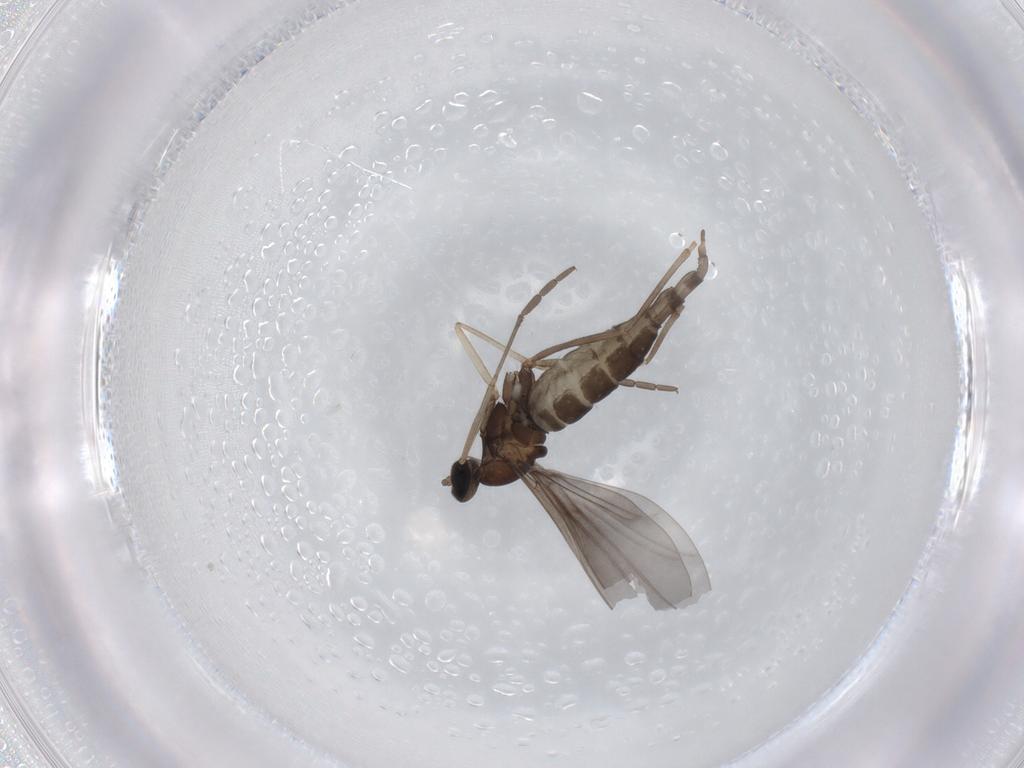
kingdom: Animalia
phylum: Arthropoda
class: Insecta
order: Diptera
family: Cecidomyiidae
